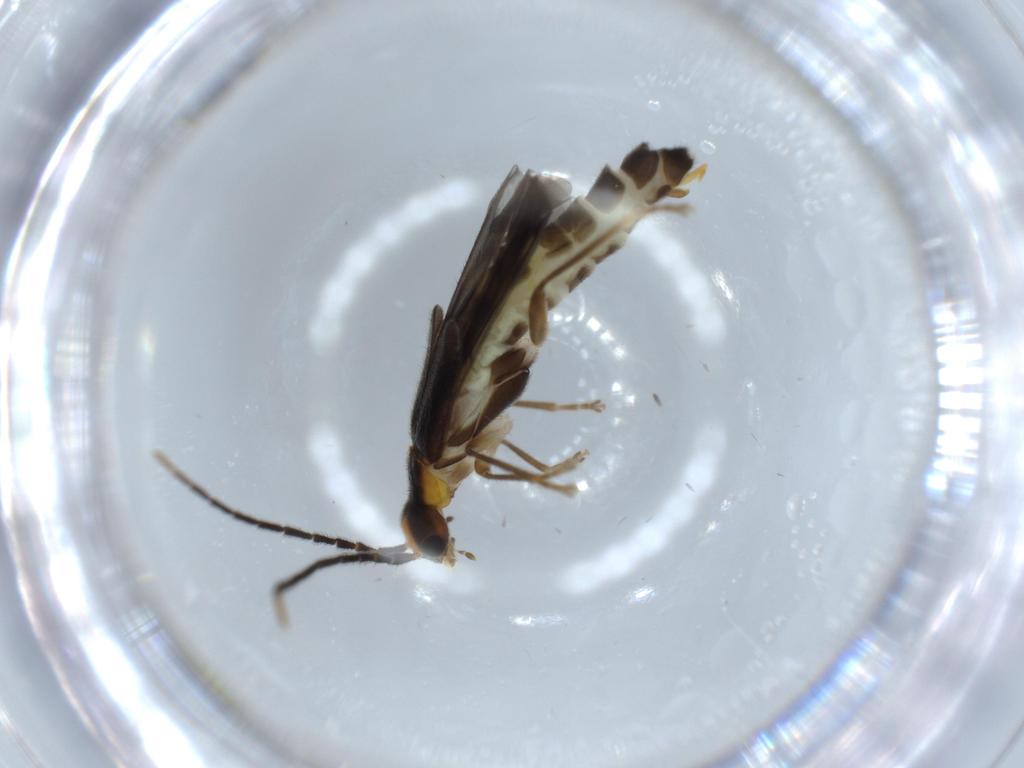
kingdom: Animalia
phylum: Arthropoda
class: Insecta
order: Coleoptera
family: Cantharidae
